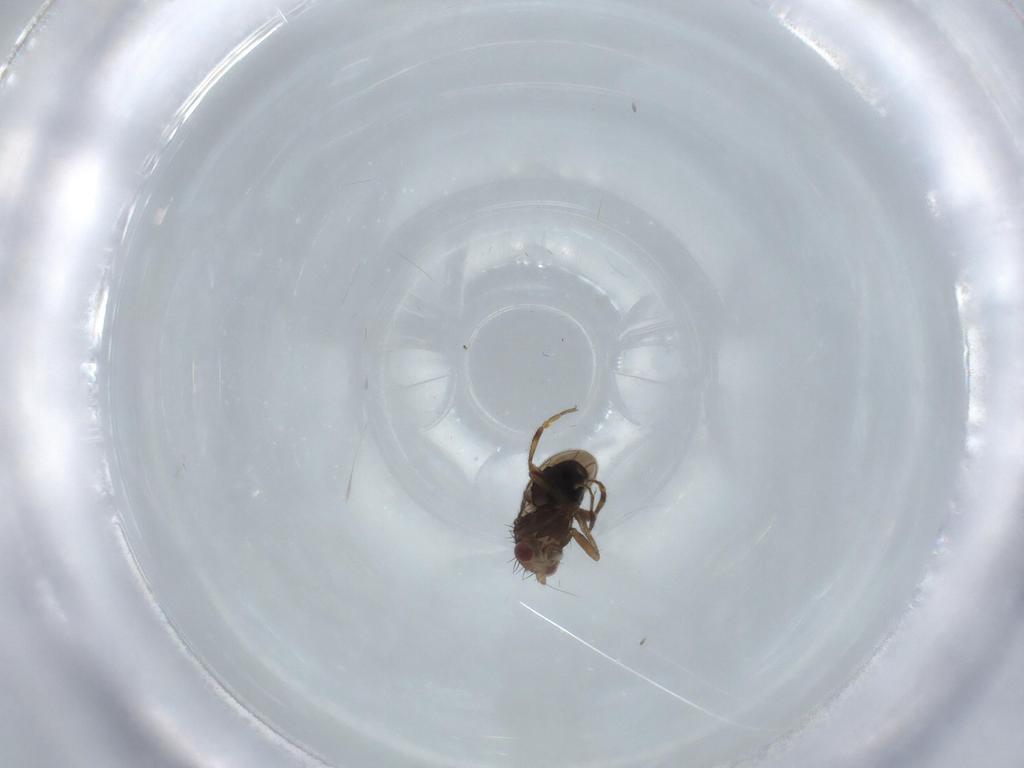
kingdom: Animalia
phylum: Arthropoda
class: Insecta
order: Diptera
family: Sphaeroceridae
